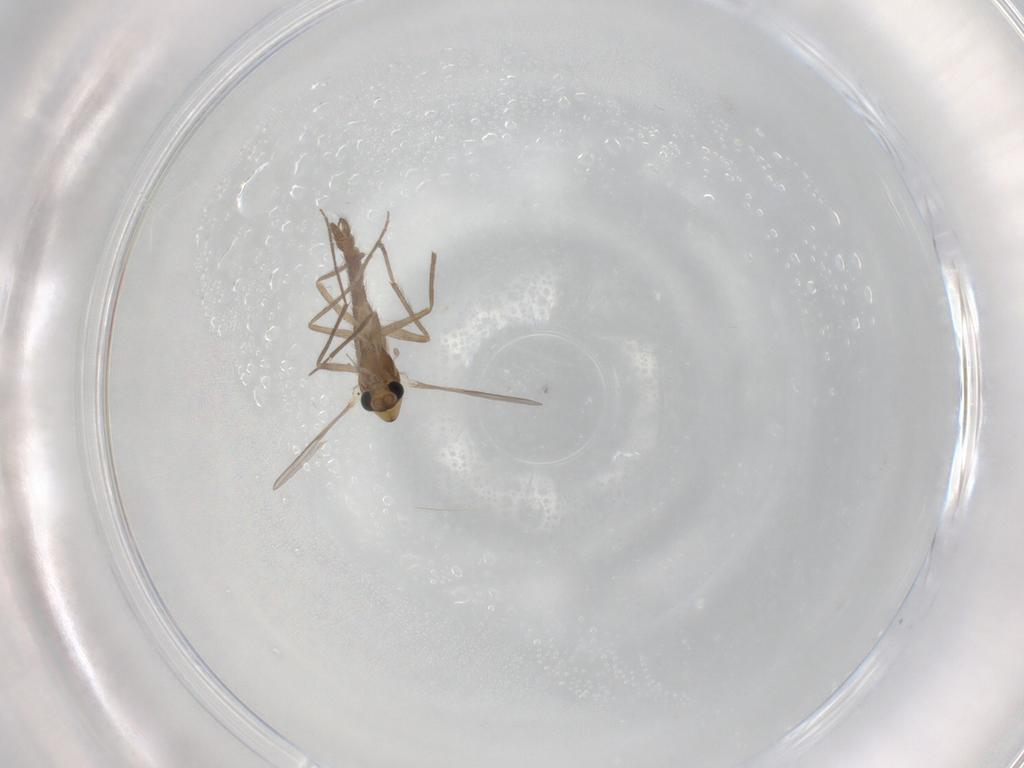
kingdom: Animalia
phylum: Arthropoda
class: Insecta
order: Diptera
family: Chironomidae
